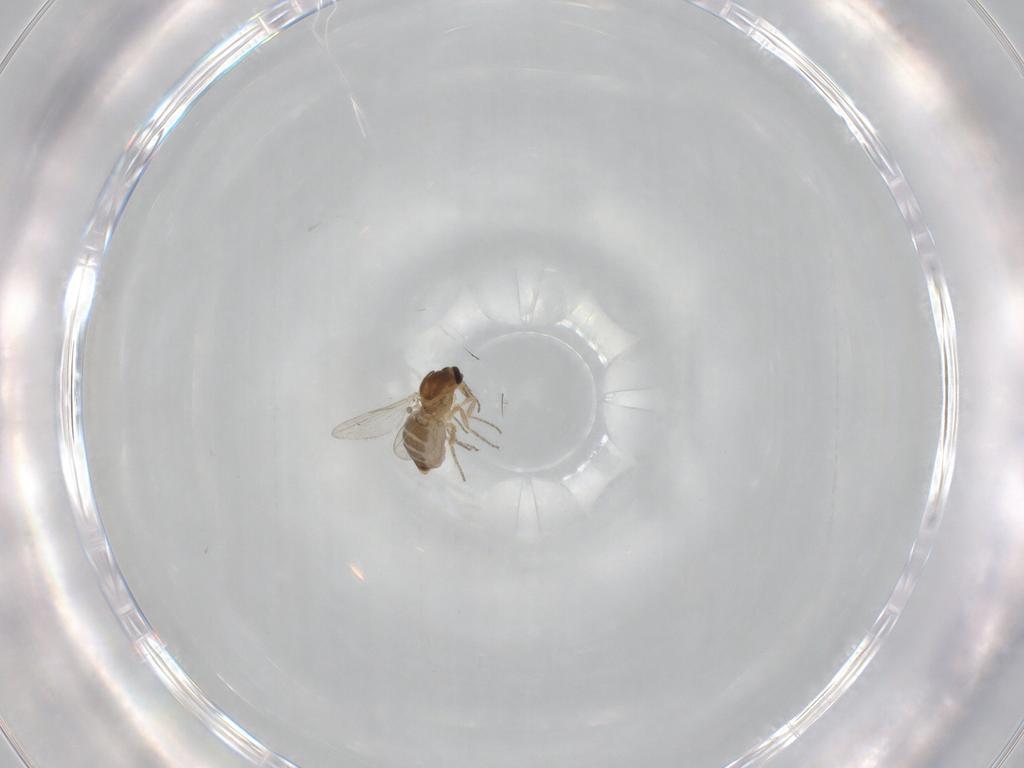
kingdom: Animalia
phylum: Arthropoda
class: Insecta
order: Diptera
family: Ceratopogonidae
